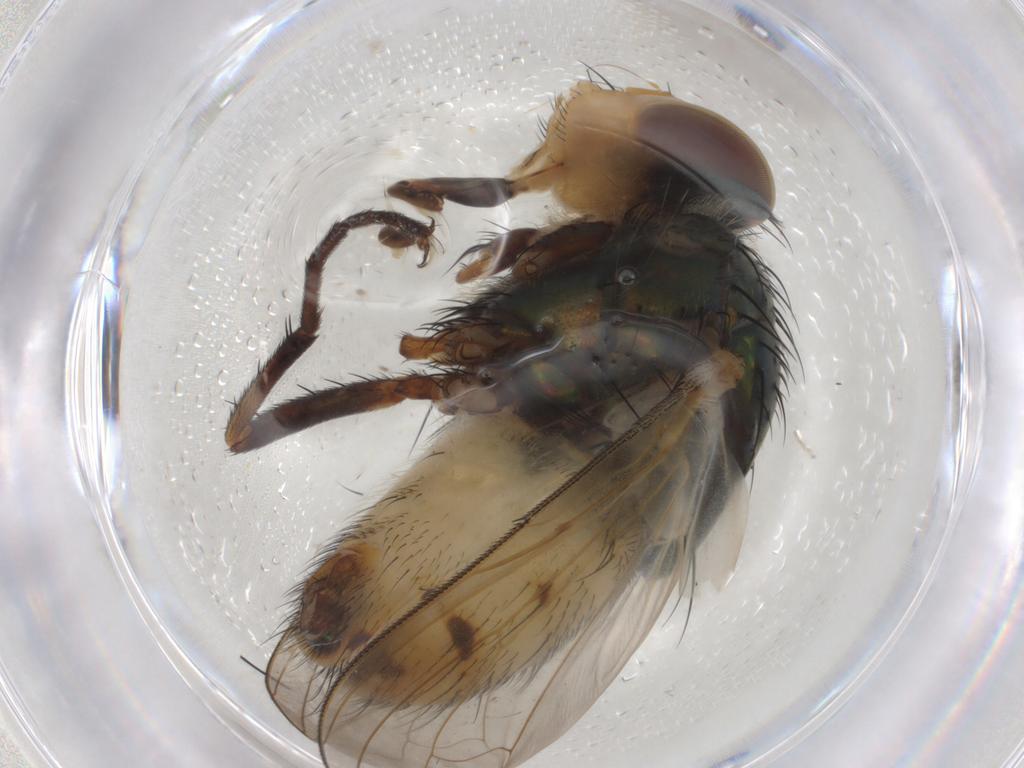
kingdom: Animalia
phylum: Arthropoda
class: Insecta
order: Diptera
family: Calliphoridae
